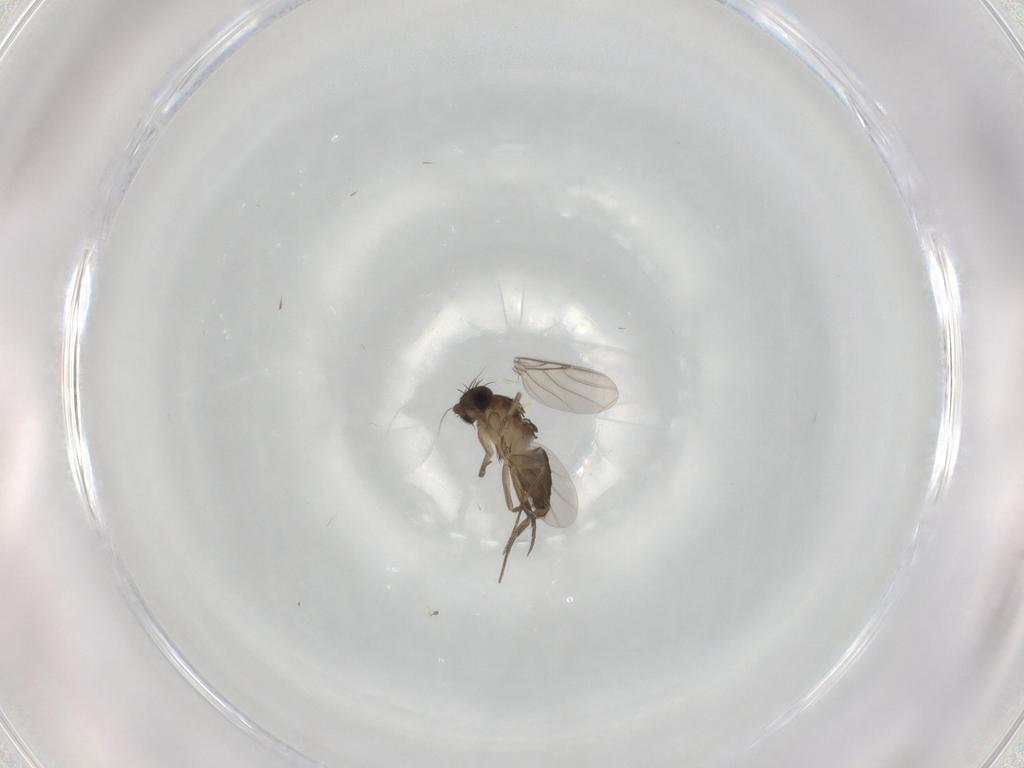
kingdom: Animalia
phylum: Arthropoda
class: Insecta
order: Diptera
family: Phoridae
